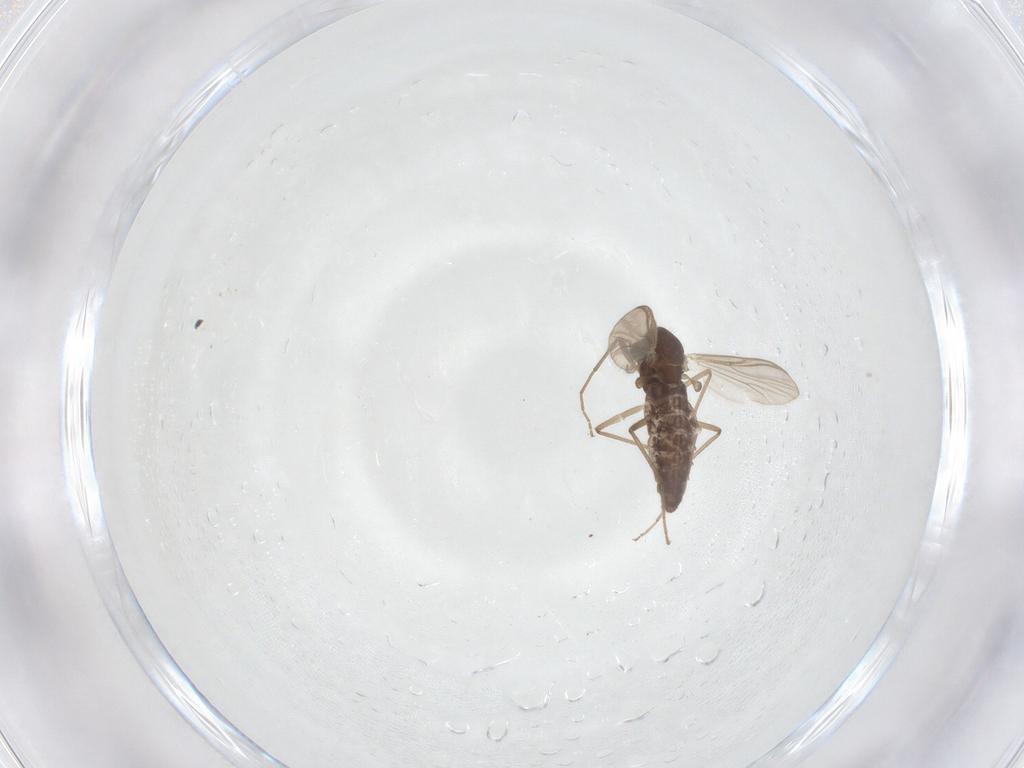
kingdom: Animalia
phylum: Arthropoda
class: Insecta
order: Diptera
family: Chironomidae
